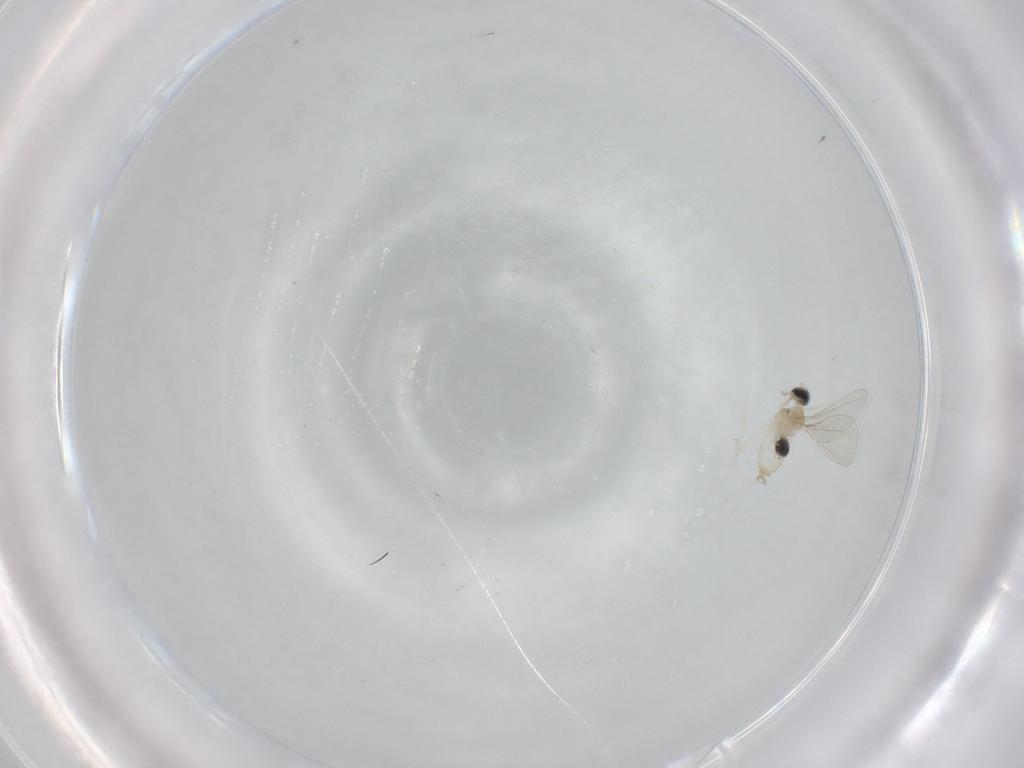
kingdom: Animalia
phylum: Arthropoda
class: Insecta
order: Diptera
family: Cecidomyiidae
